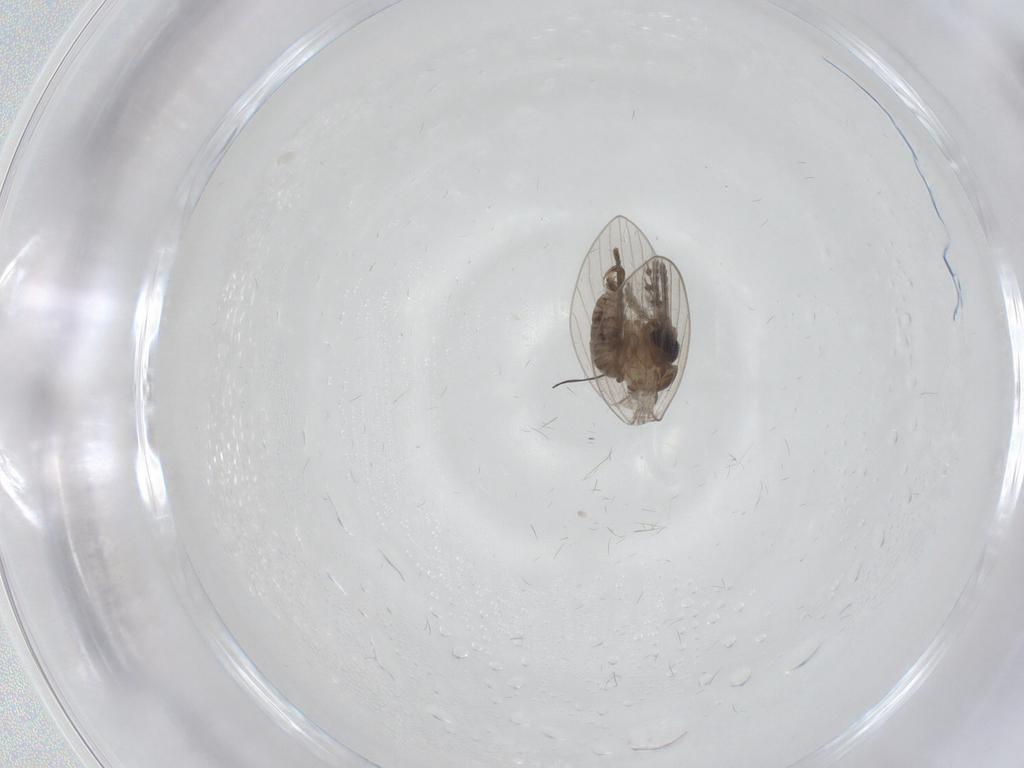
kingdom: Animalia
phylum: Arthropoda
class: Insecta
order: Diptera
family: Psychodidae
